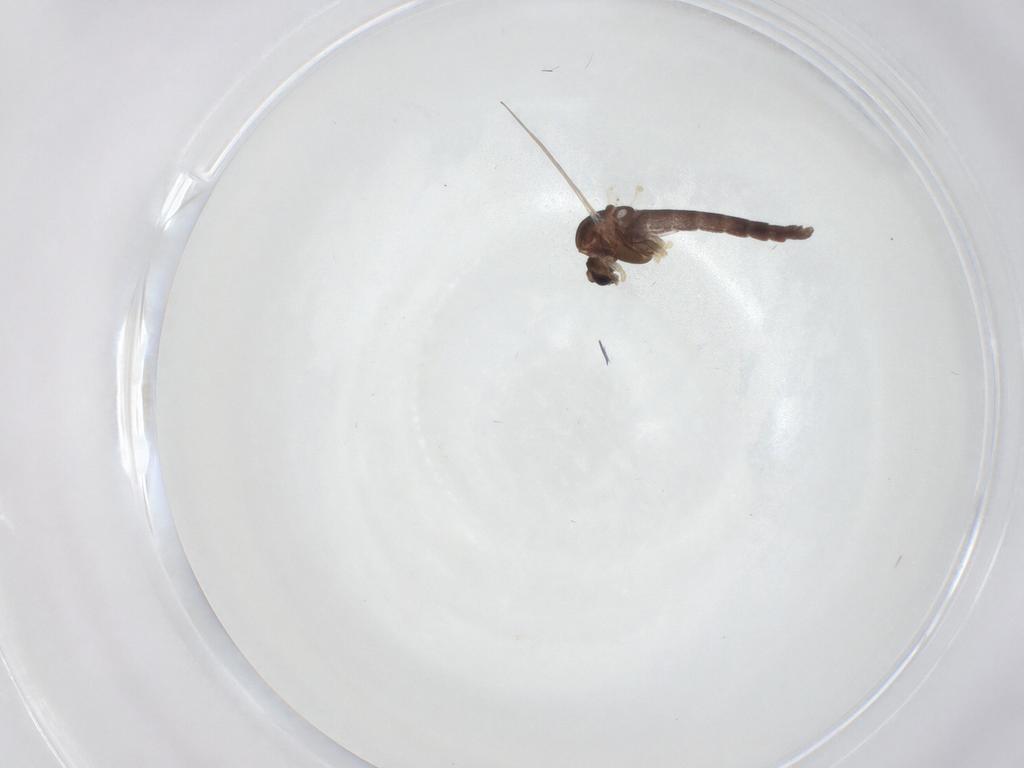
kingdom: Animalia
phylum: Arthropoda
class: Insecta
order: Diptera
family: Chironomidae
